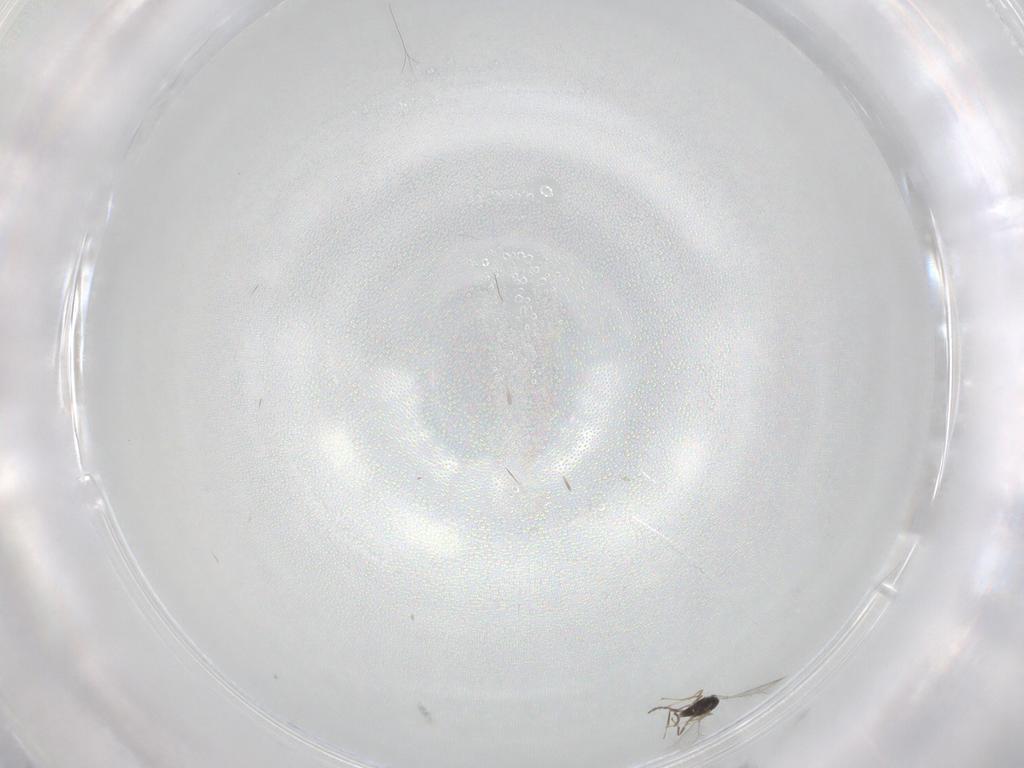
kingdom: Animalia
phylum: Arthropoda
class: Insecta
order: Hymenoptera
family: Mymaridae
